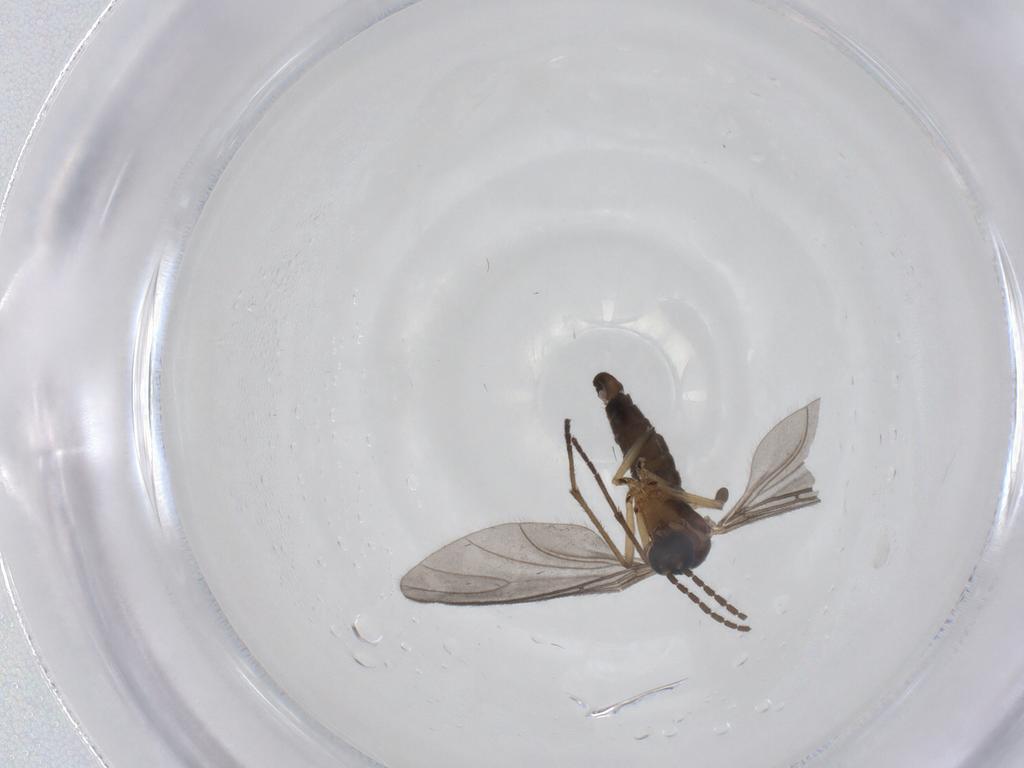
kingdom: Animalia
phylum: Arthropoda
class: Insecta
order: Diptera
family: Sciaridae
